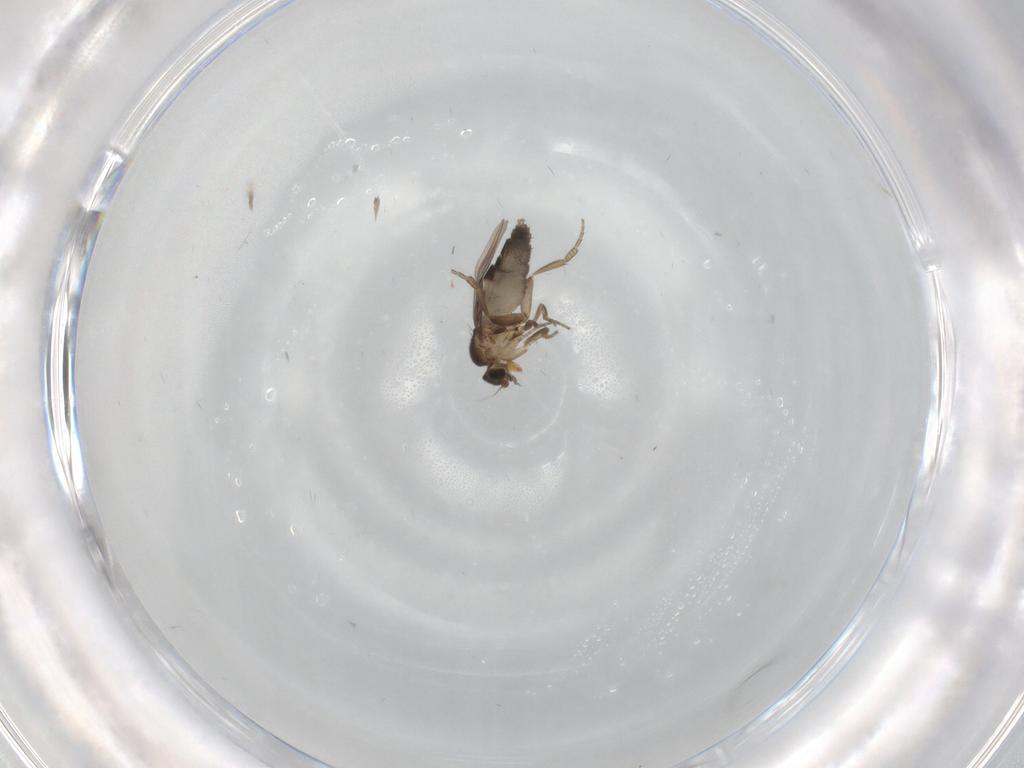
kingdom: Animalia
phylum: Arthropoda
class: Insecta
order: Diptera
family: Phoridae
